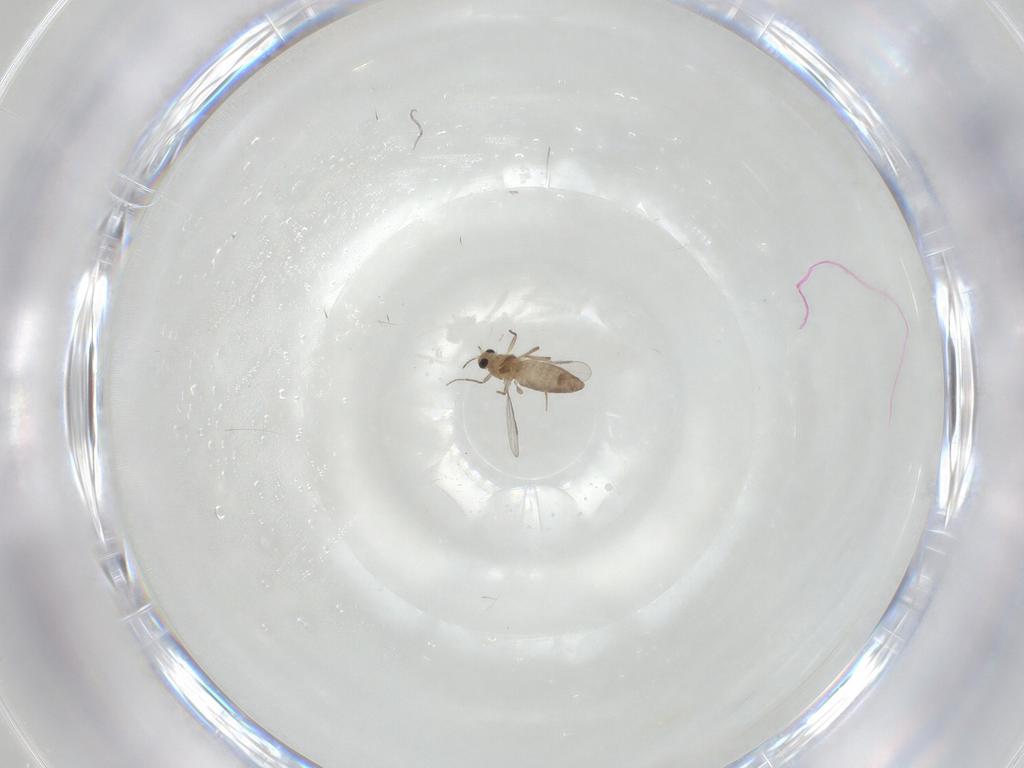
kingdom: Animalia
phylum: Arthropoda
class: Insecta
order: Diptera
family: Chironomidae
